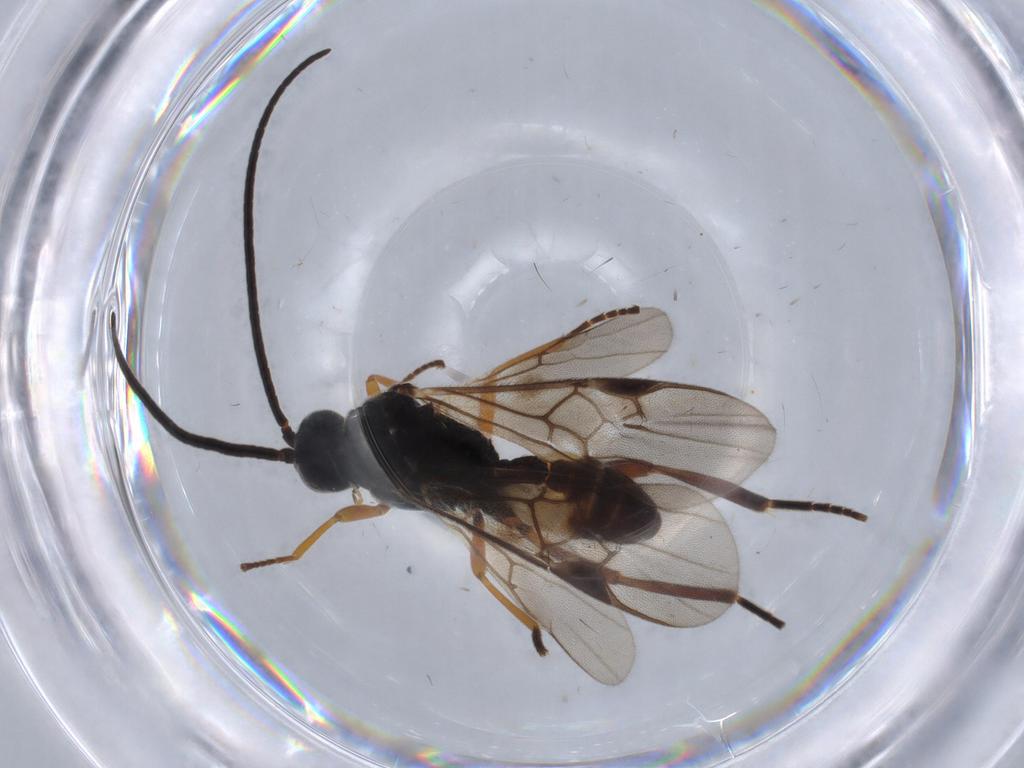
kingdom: Animalia
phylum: Arthropoda
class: Insecta
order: Hymenoptera
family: Braconidae
